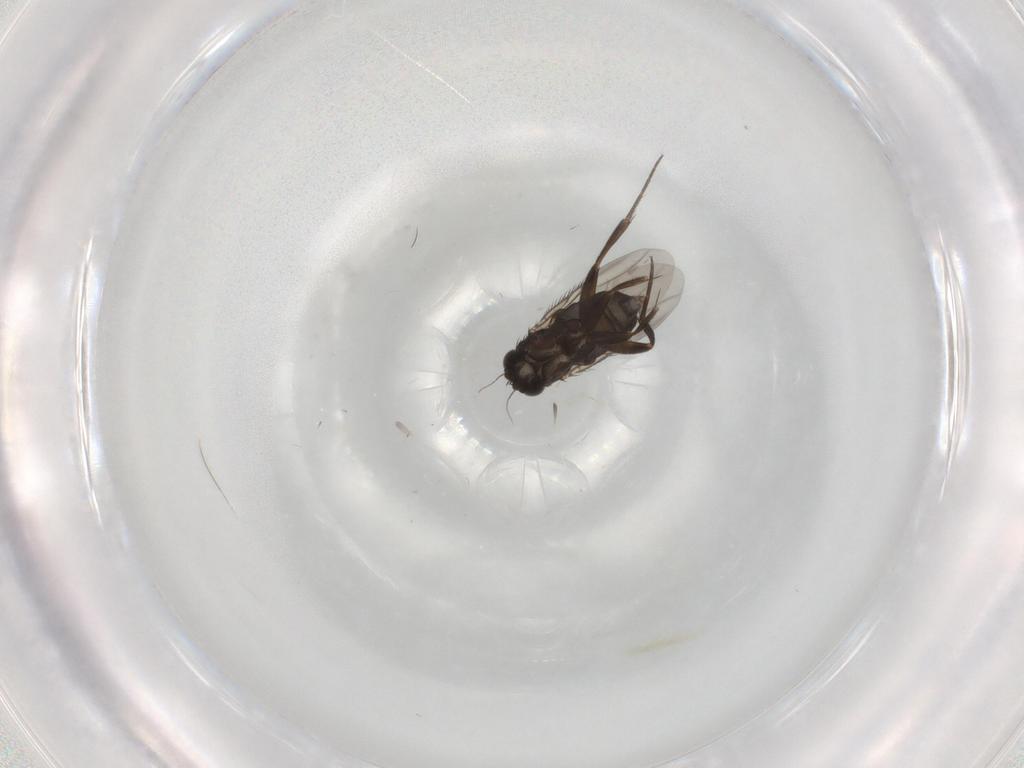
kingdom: Animalia
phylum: Arthropoda
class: Insecta
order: Diptera
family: Phoridae
